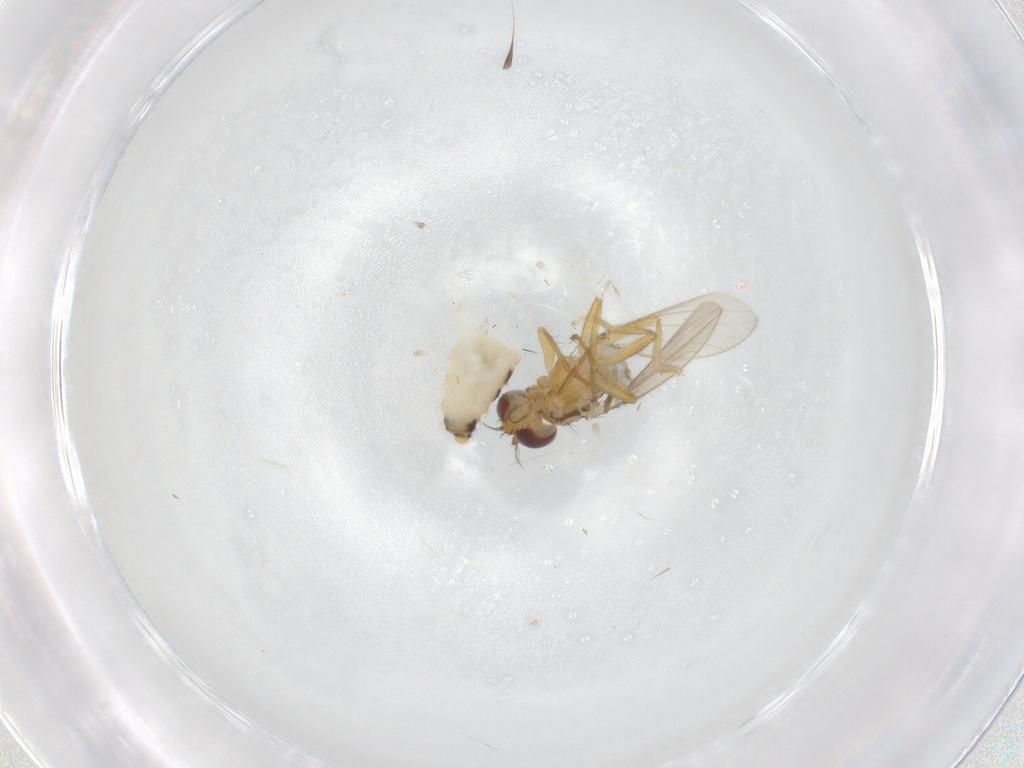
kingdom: Animalia
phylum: Arthropoda
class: Insecta
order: Diptera
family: Periscelididae
